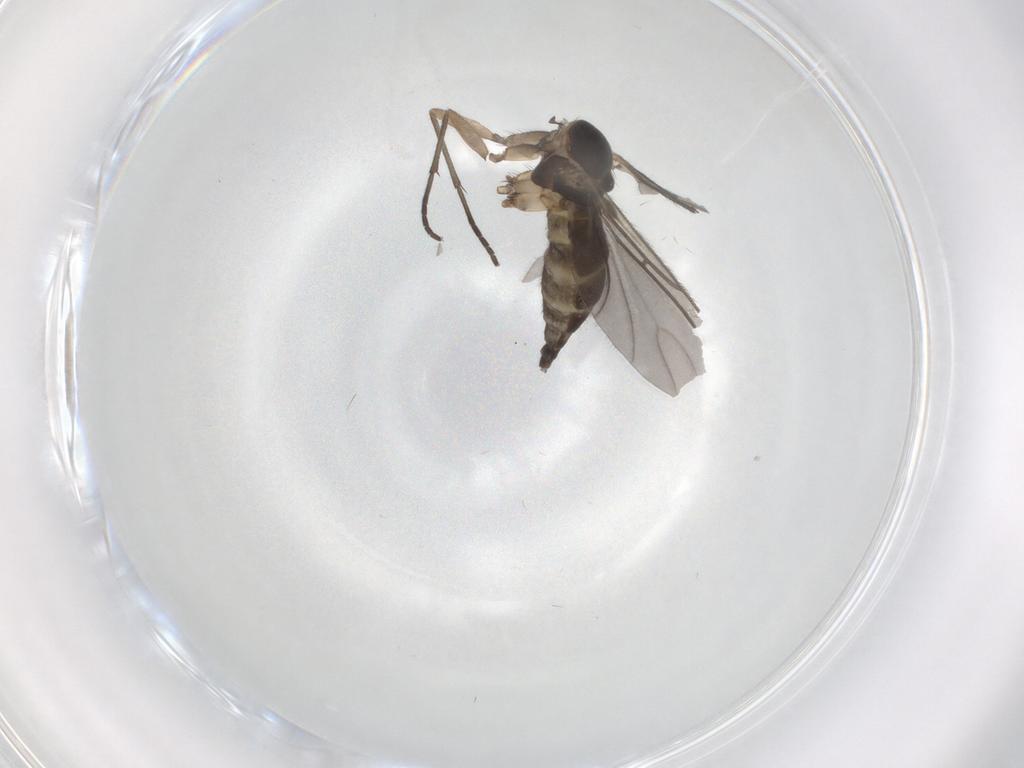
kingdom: Animalia
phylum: Arthropoda
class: Insecta
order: Diptera
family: Sciaridae
